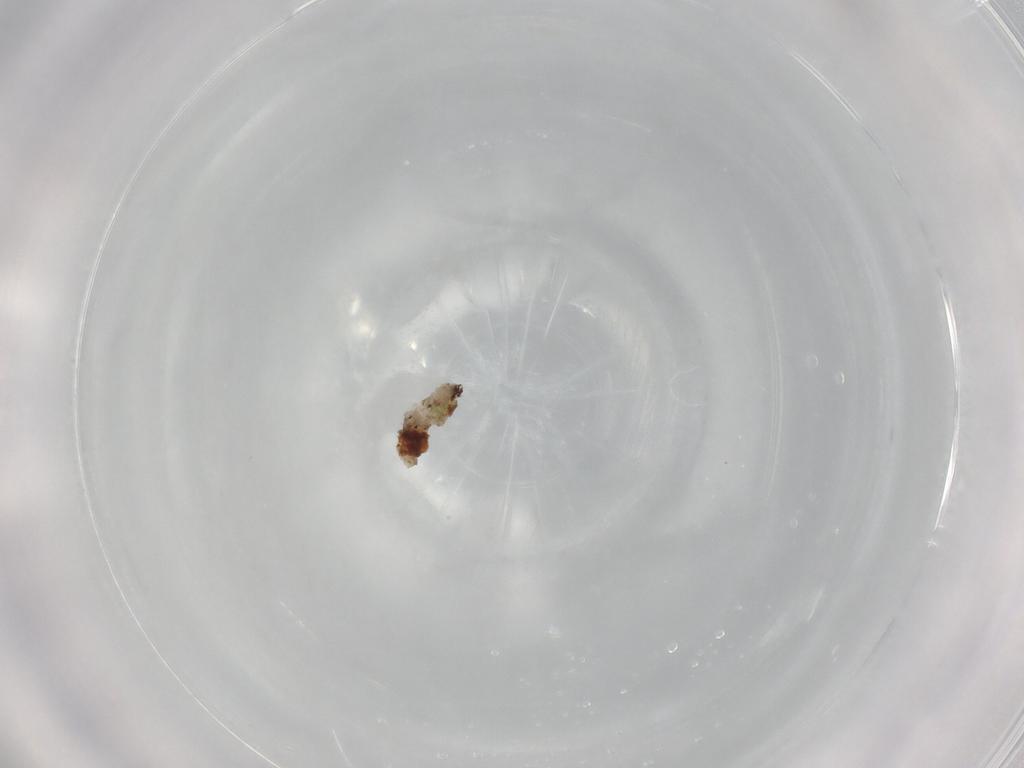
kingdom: Animalia
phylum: Arthropoda
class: Insecta
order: Diptera
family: Syrphidae
